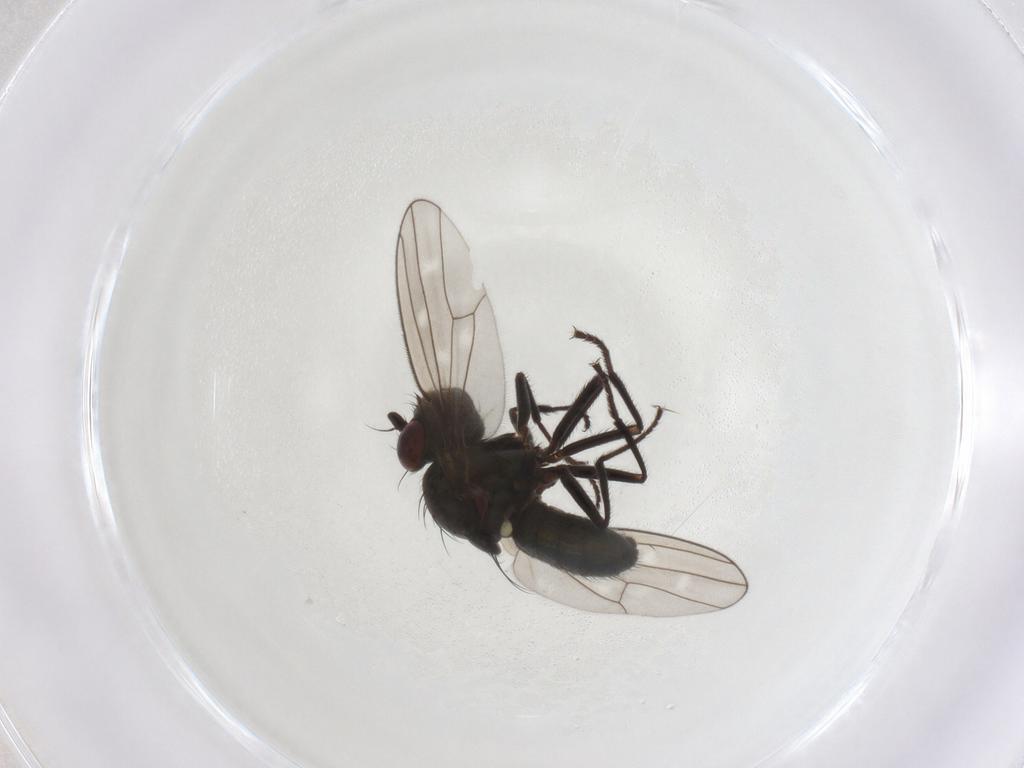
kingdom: Animalia
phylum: Arthropoda
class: Insecta
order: Diptera
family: Ephydridae
